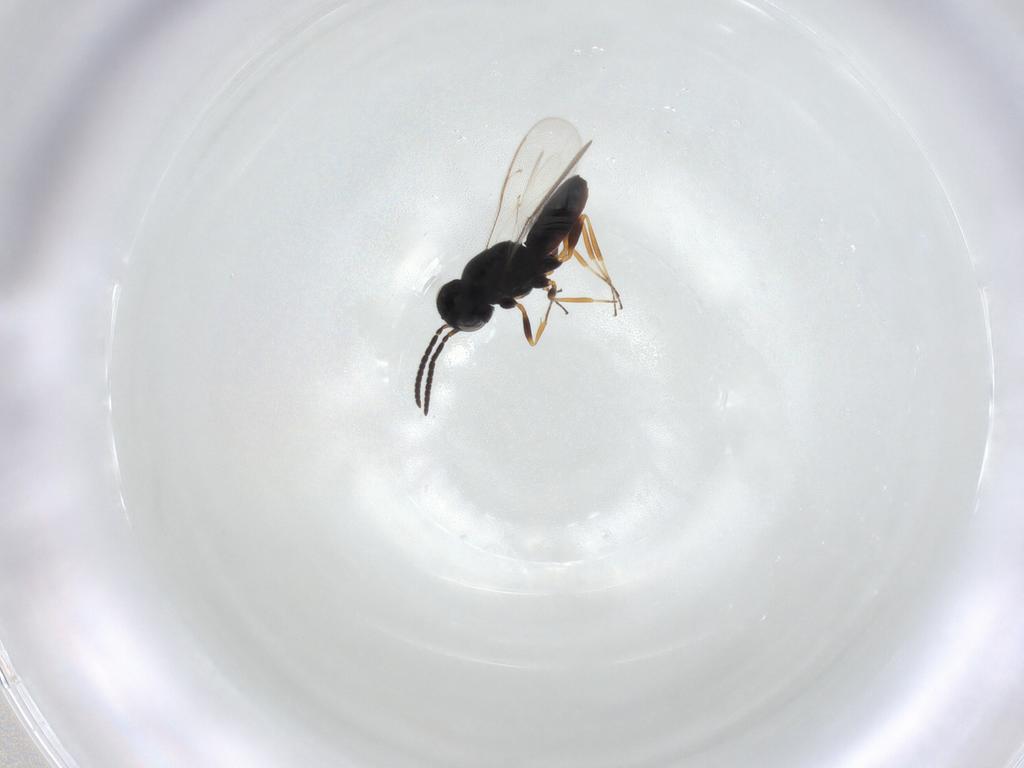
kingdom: Animalia
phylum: Arthropoda
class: Insecta
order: Hymenoptera
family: Scelionidae
